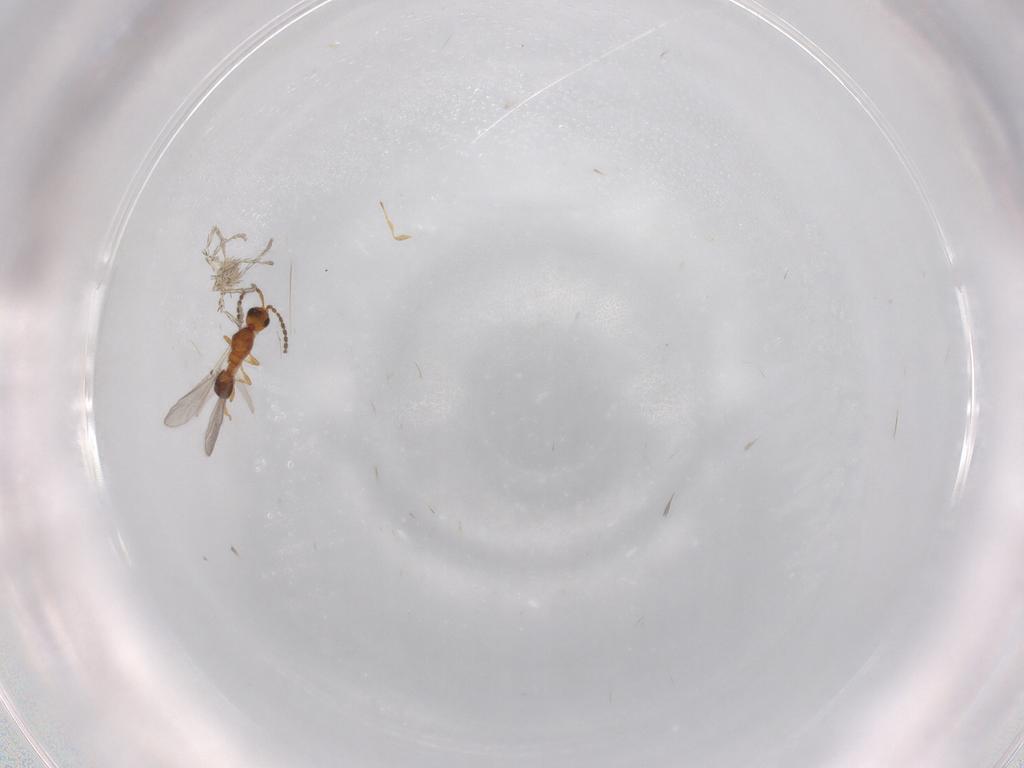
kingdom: Animalia
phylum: Arthropoda
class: Insecta
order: Hymenoptera
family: Diapriidae
